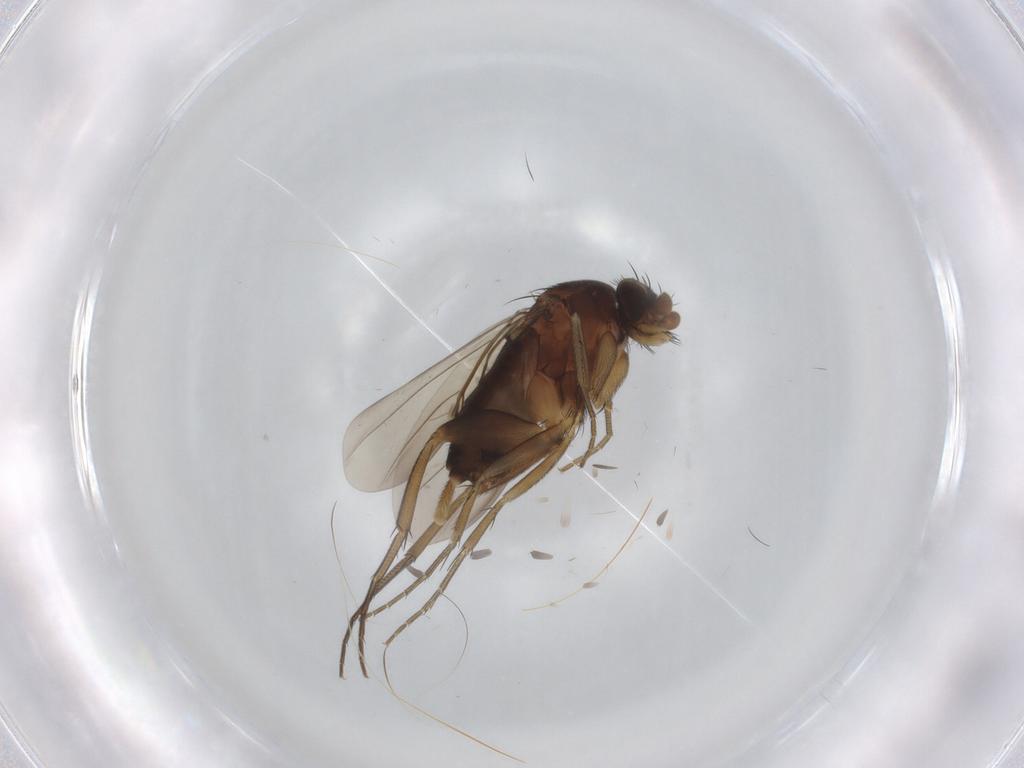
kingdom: Animalia
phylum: Arthropoda
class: Insecta
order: Diptera
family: Phoridae
